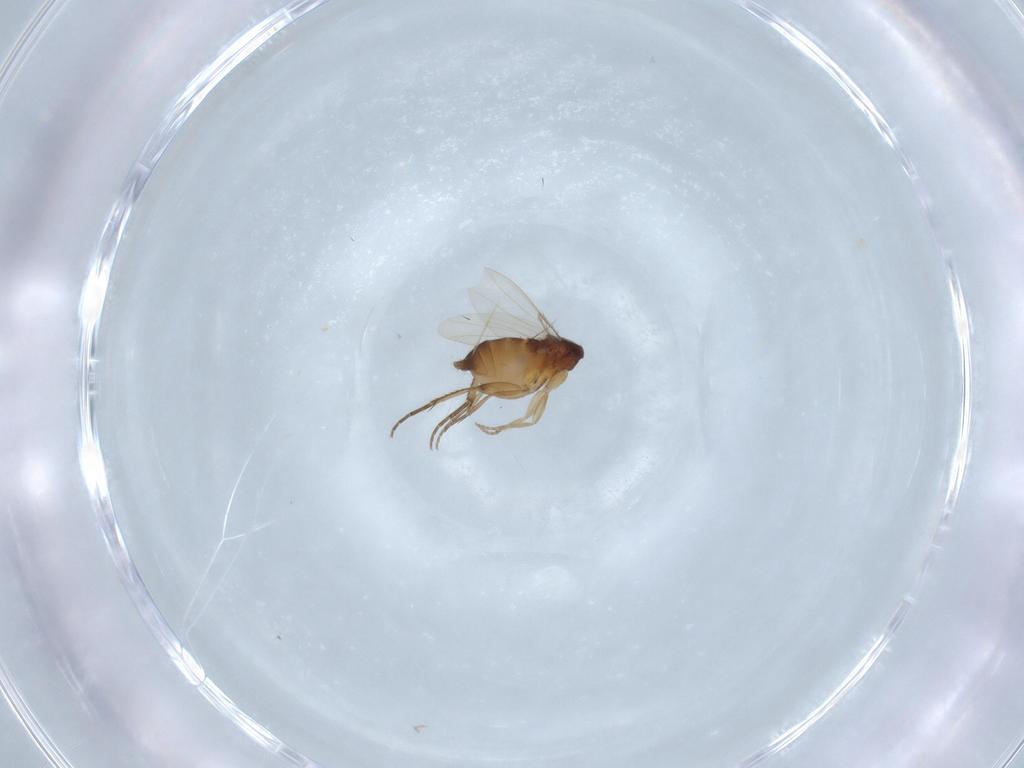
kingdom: Animalia
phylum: Arthropoda
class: Insecta
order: Diptera
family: Phoridae
